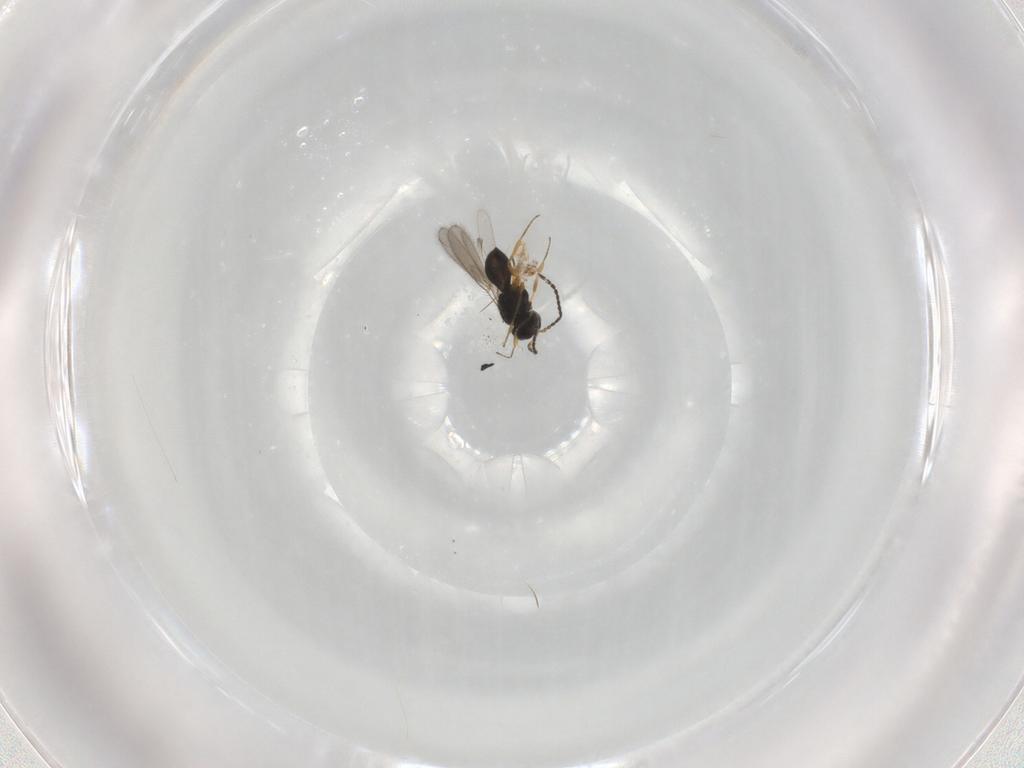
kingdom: Animalia
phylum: Arthropoda
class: Insecta
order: Hymenoptera
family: Scelionidae
